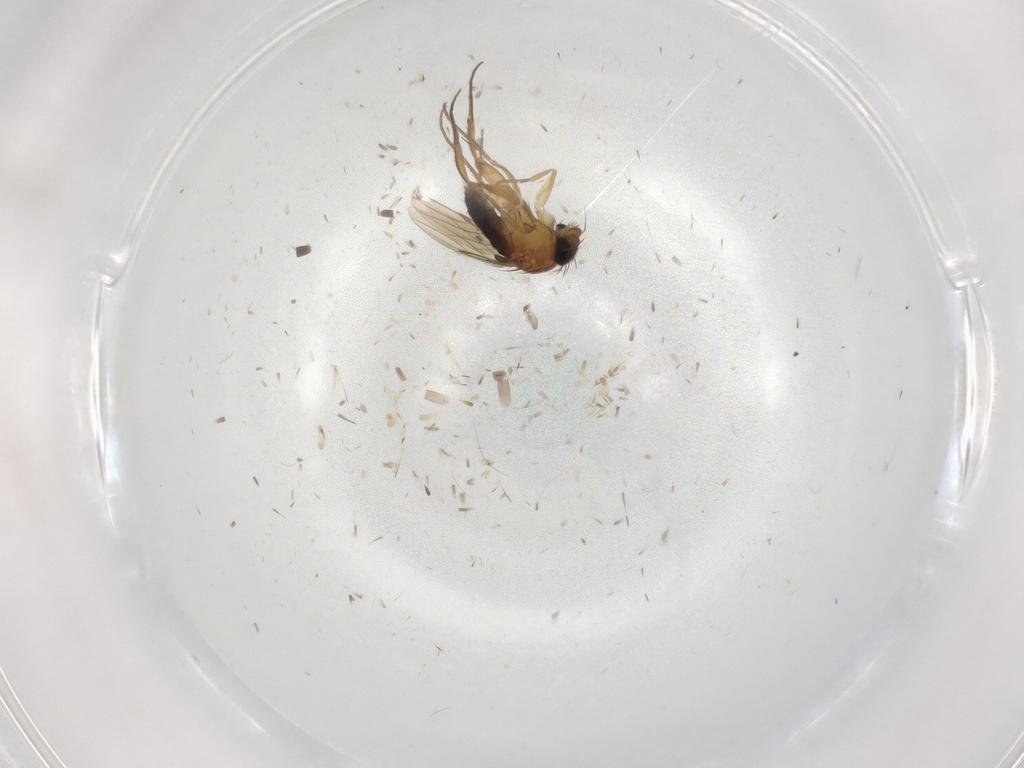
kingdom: Animalia
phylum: Arthropoda
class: Insecta
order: Diptera
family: Phoridae
